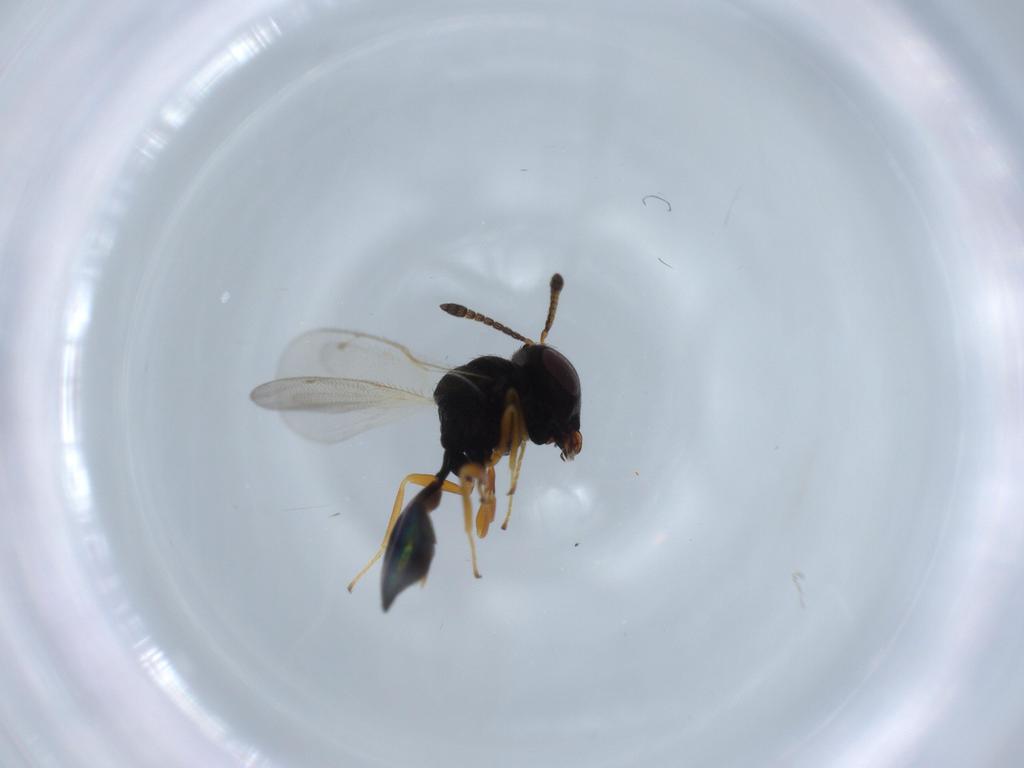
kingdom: Animalia
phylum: Arthropoda
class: Insecta
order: Hymenoptera
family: Pteromalidae
